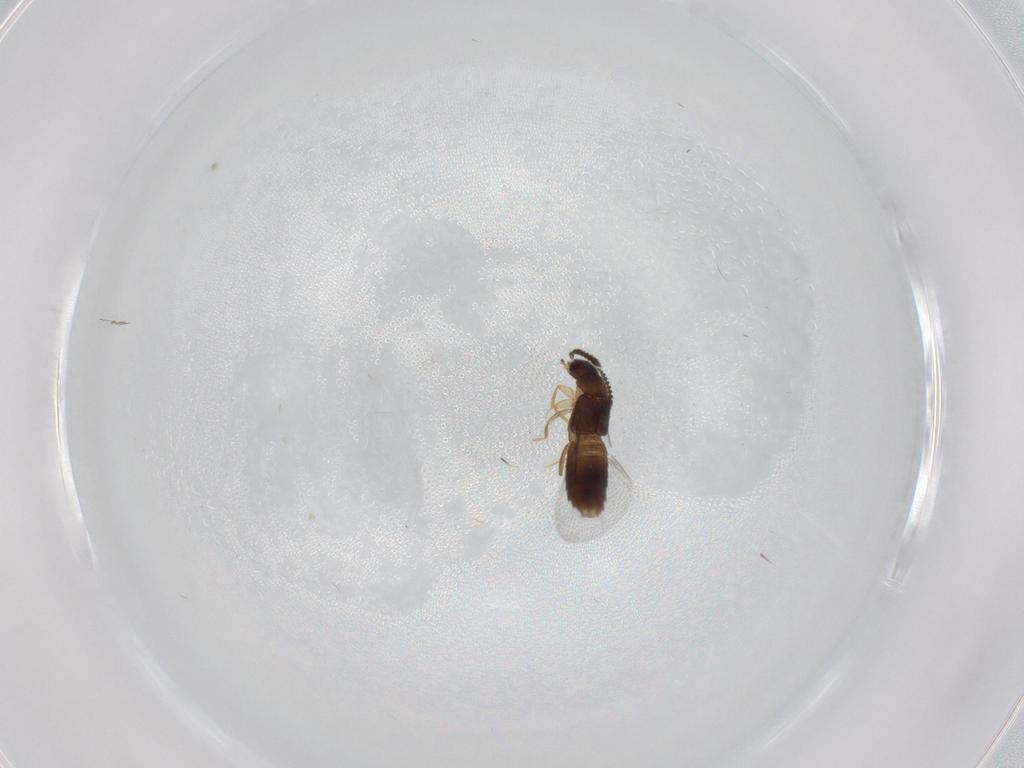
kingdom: Animalia
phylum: Arthropoda
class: Insecta
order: Coleoptera
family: Staphylinidae
